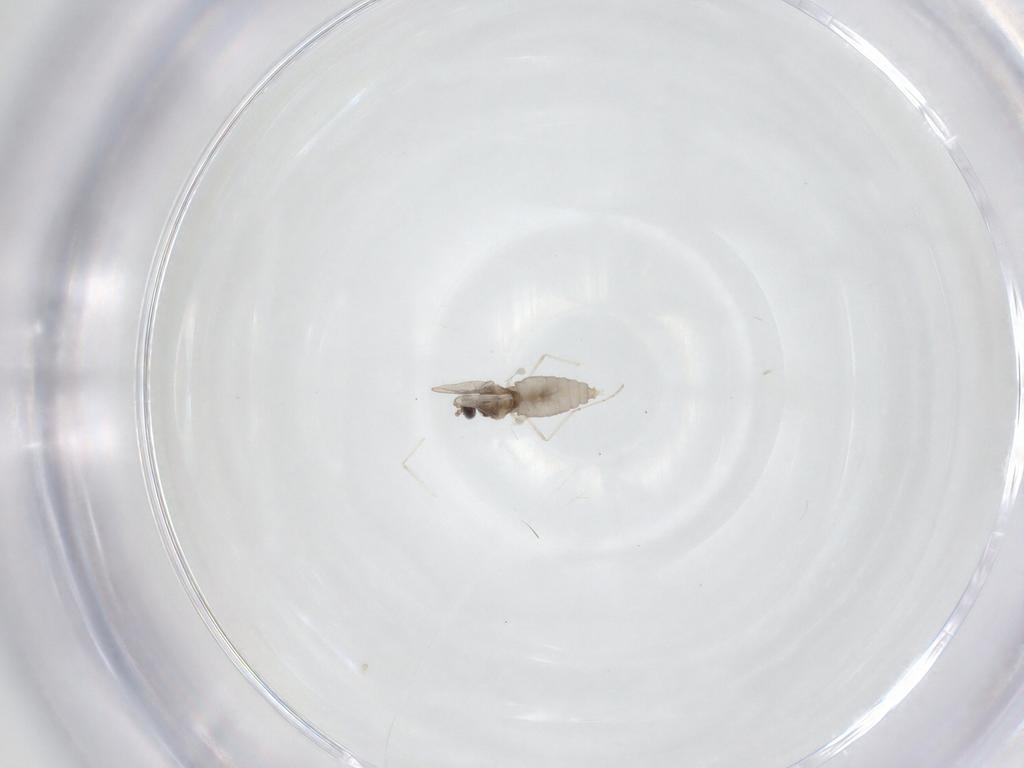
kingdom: Animalia
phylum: Arthropoda
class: Insecta
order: Diptera
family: Cecidomyiidae
